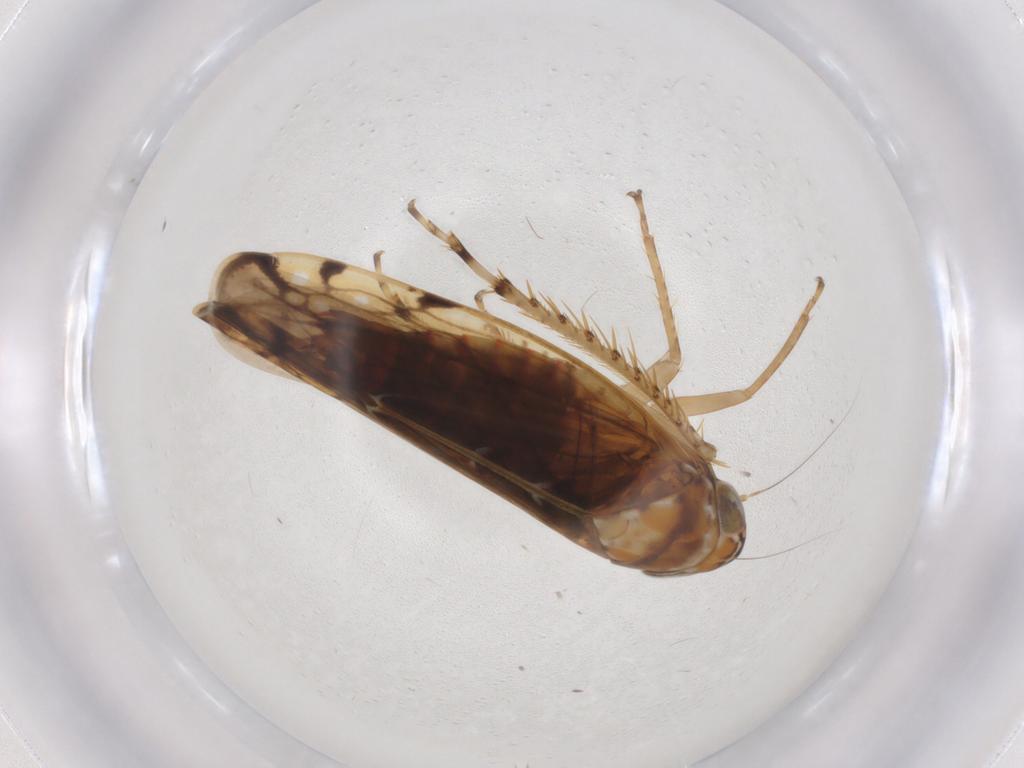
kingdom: Animalia
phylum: Arthropoda
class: Insecta
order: Hemiptera
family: Cicadellidae
